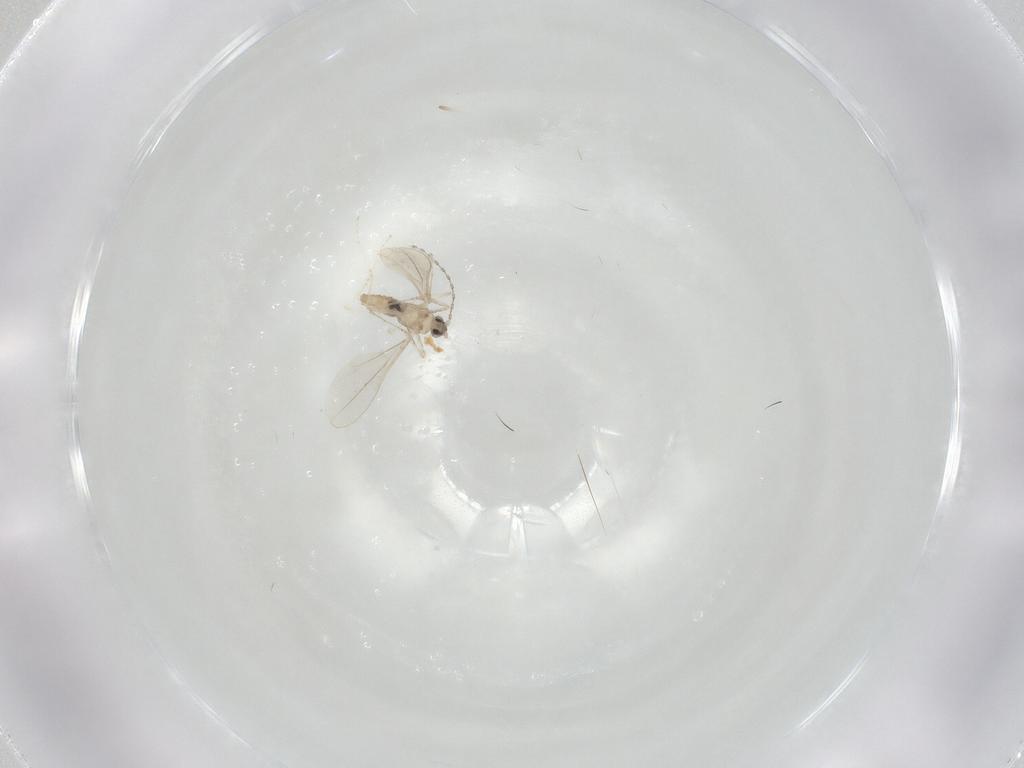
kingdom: Animalia
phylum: Arthropoda
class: Insecta
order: Diptera
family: Cecidomyiidae
